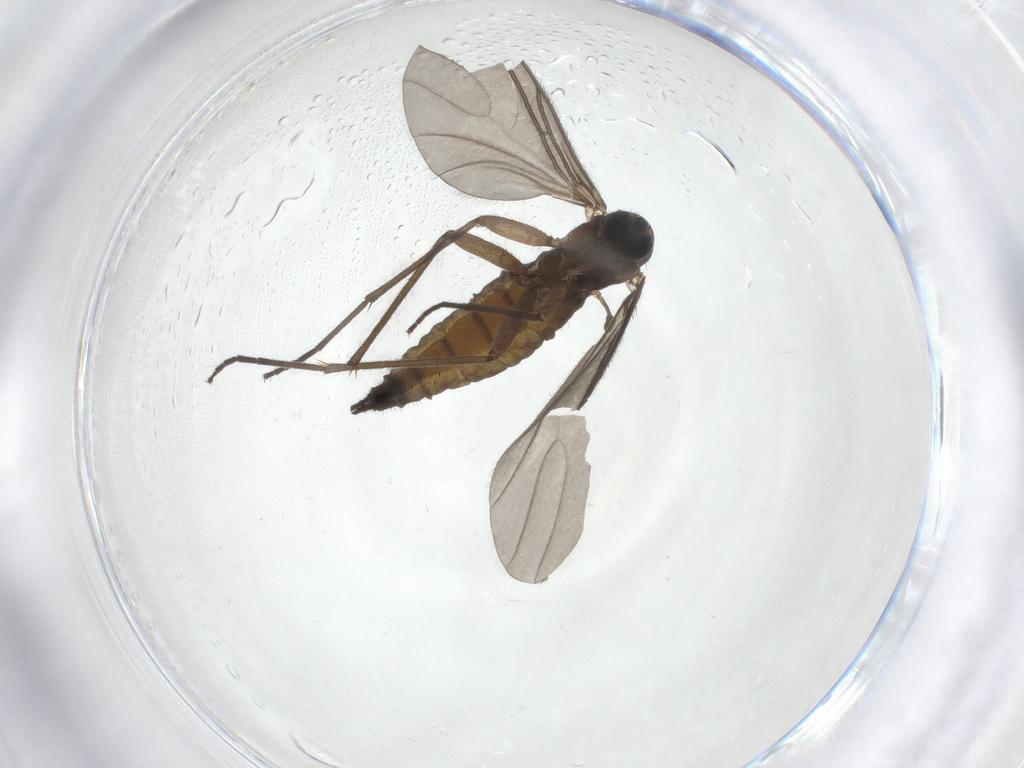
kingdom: Animalia
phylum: Arthropoda
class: Insecta
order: Diptera
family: Sciaridae
